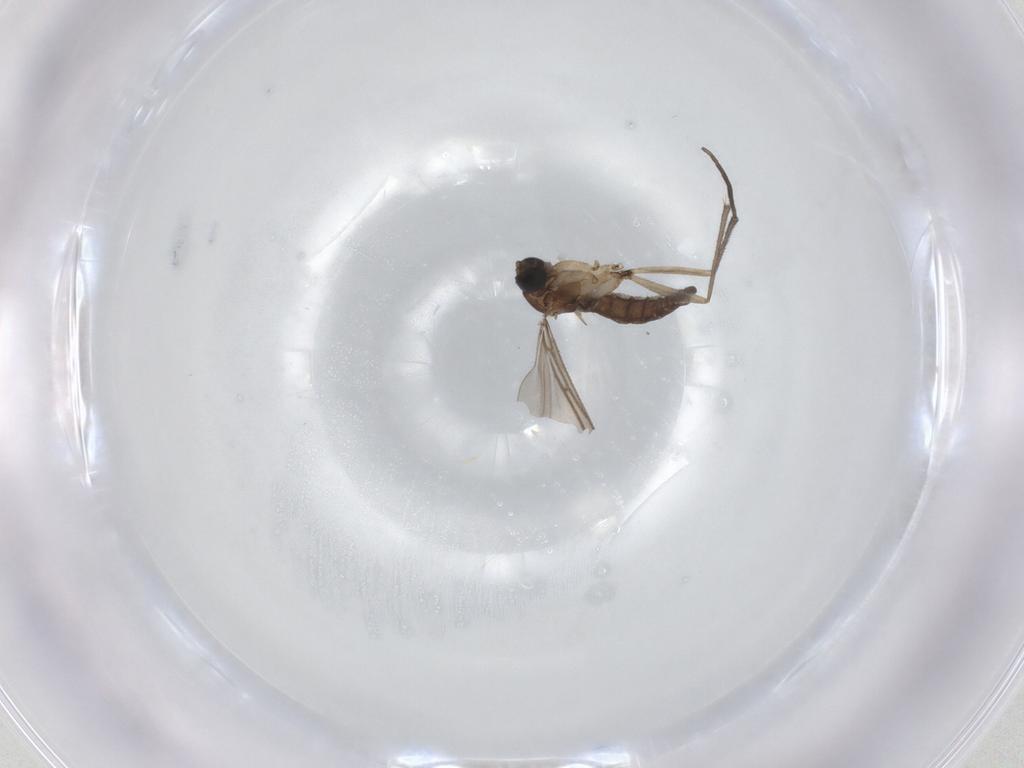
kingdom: Animalia
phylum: Arthropoda
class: Insecta
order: Diptera
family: Sciaridae
